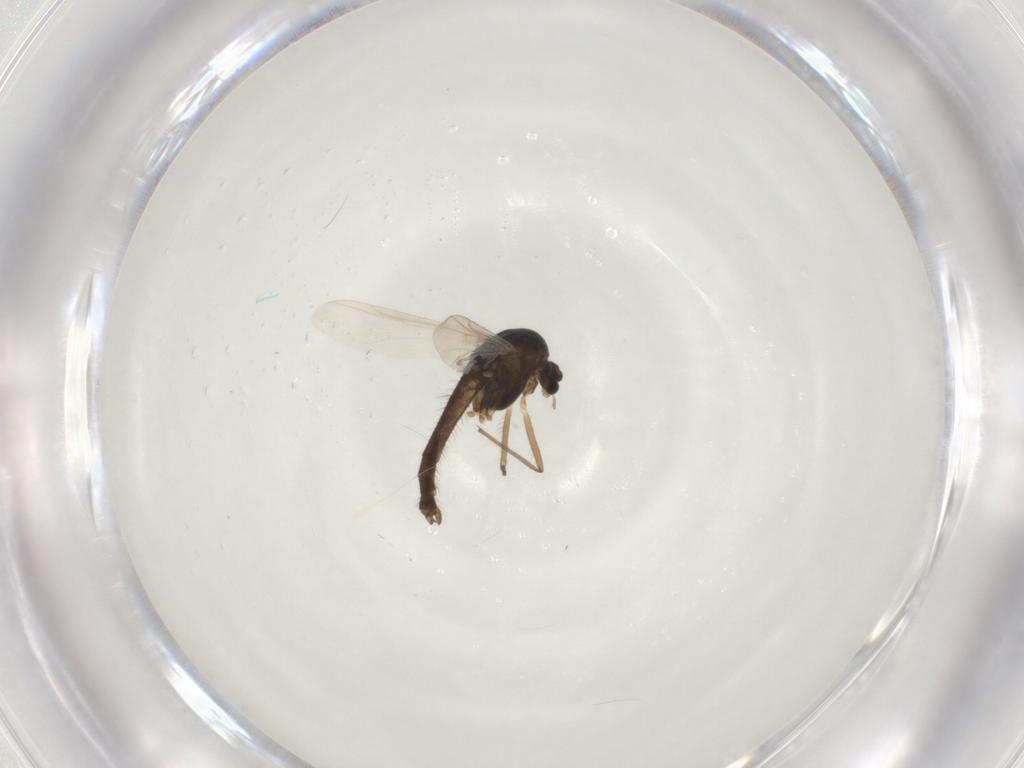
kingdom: Animalia
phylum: Arthropoda
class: Insecta
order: Diptera
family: Chironomidae
